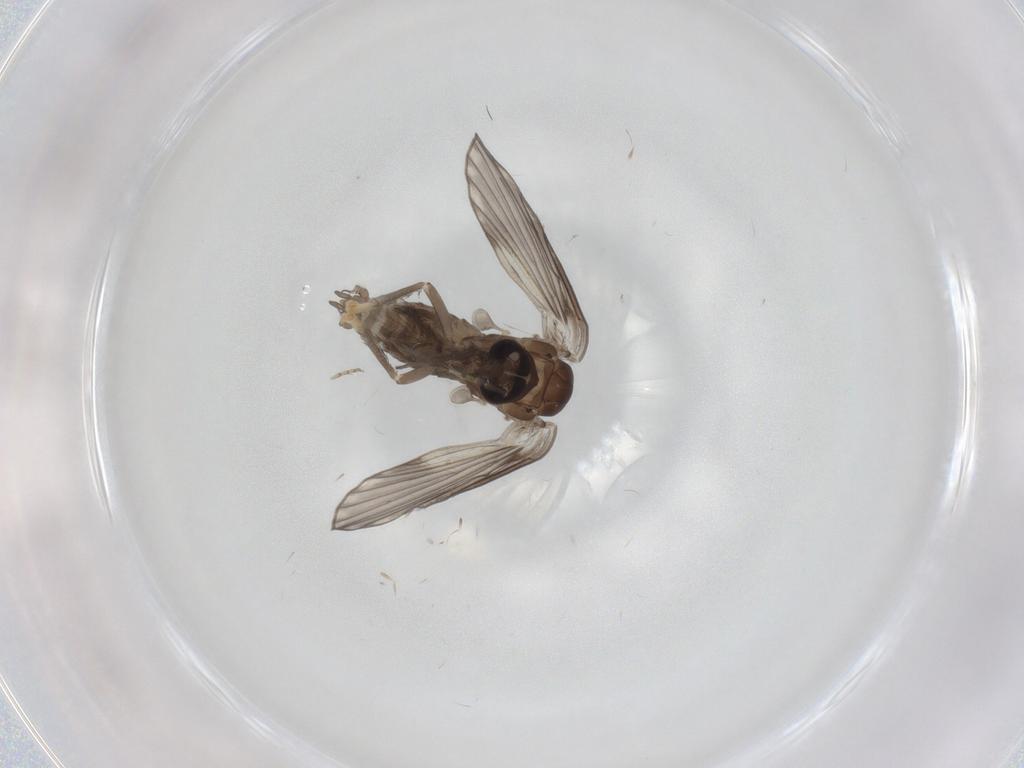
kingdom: Animalia
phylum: Arthropoda
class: Insecta
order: Diptera
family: Psychodidae
